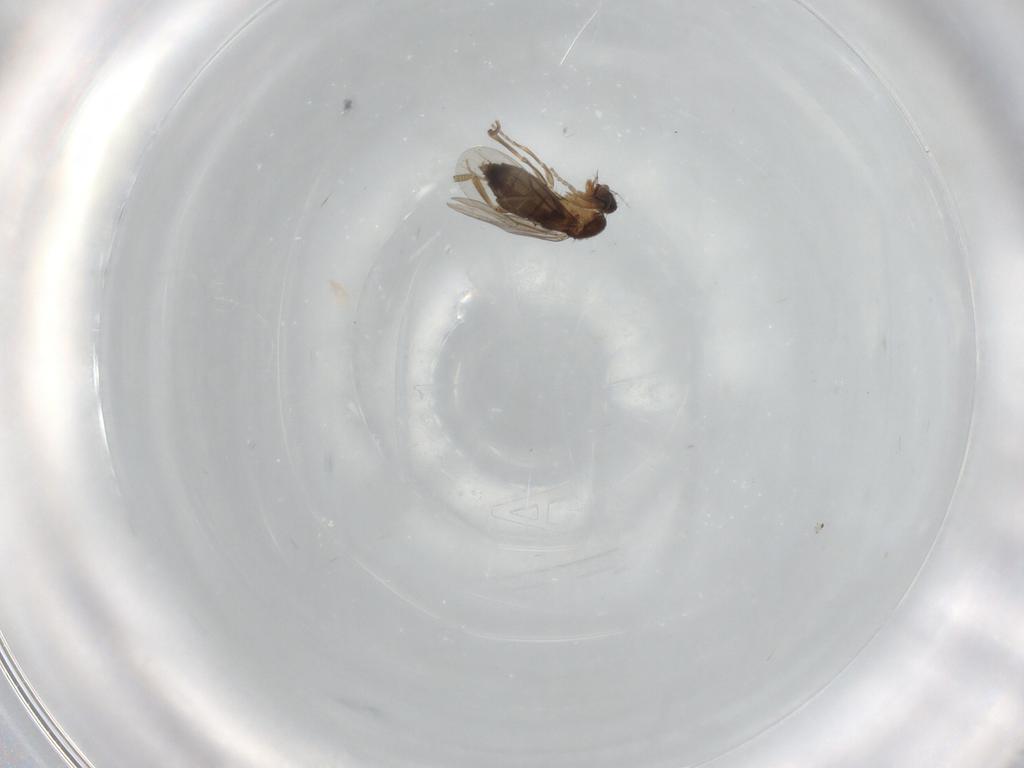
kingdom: Animalia
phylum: Arthropoda
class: Insecta
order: Diptera
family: Phoridae
